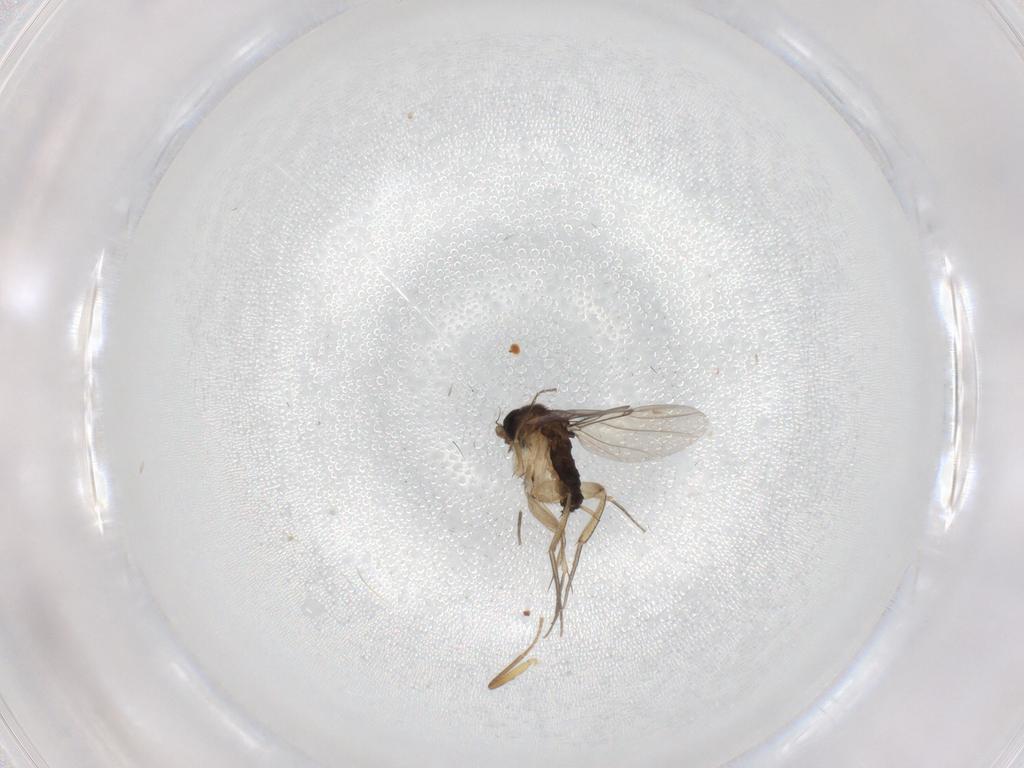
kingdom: Animalia
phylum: Arthropoda
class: Insecta
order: Diptera
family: Phoridae
